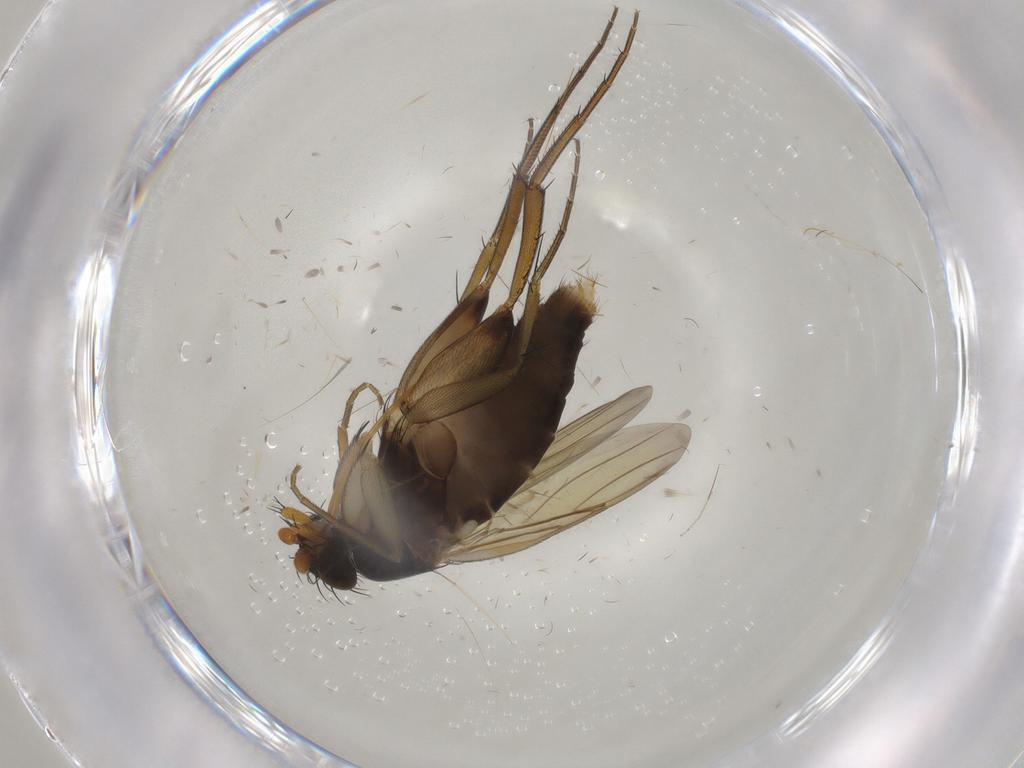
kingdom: Animalia
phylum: Arthropoda
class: Insecta
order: Diptera
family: Phoridae
